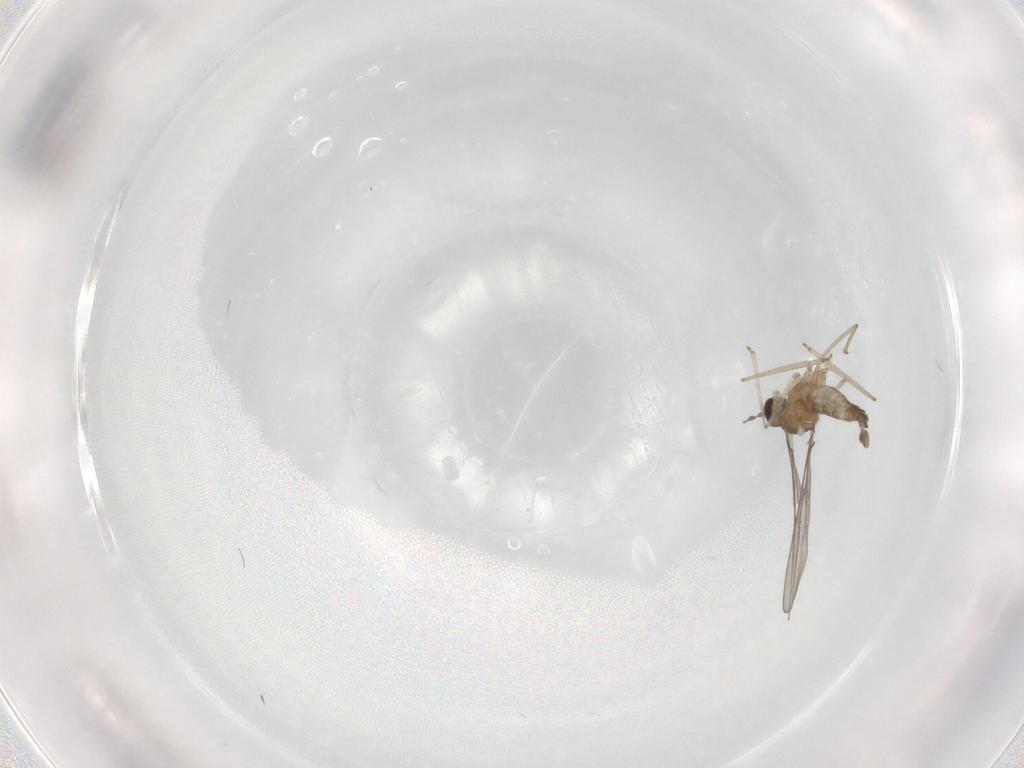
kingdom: Animalia
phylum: Arthropoda
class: Insecta
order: Diptera
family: Cecidomyiidae
